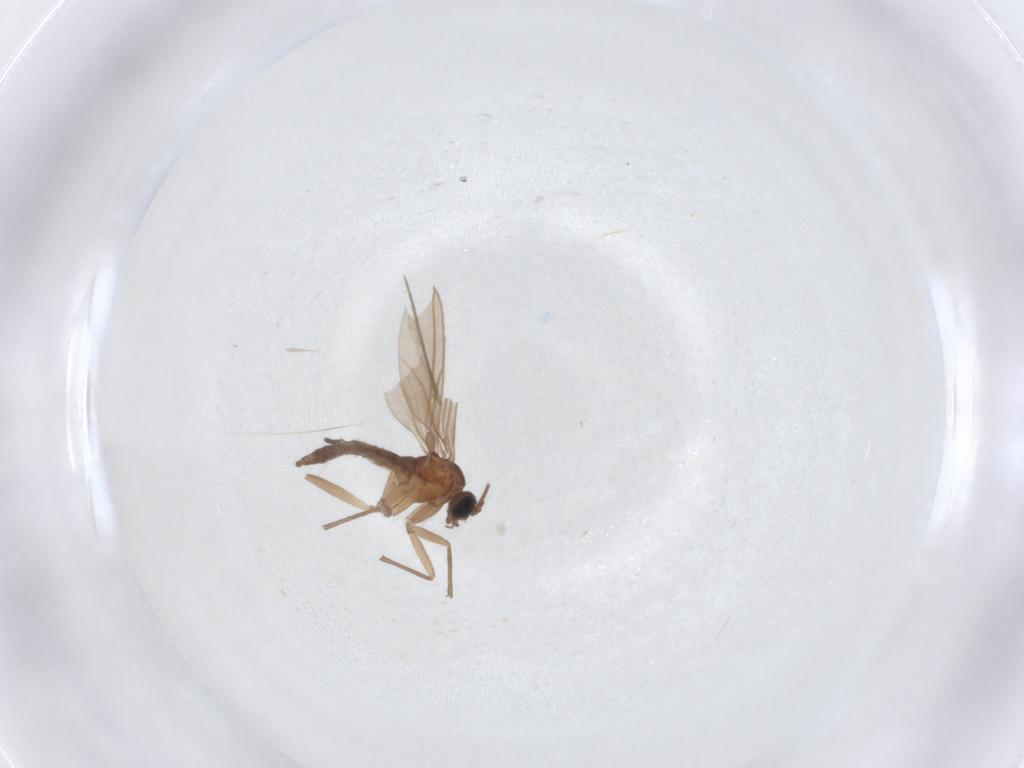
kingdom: Animalia
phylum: Arthropoda
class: Insecta
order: Diptera
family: Sciaridae
